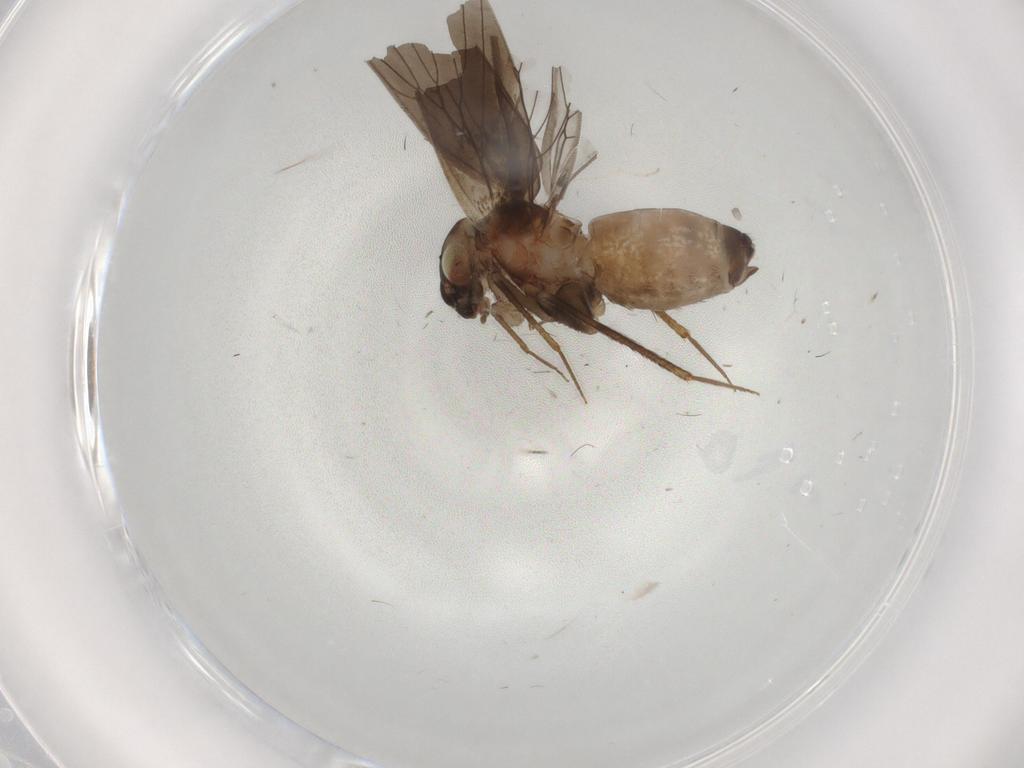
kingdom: Animalia
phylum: Arthropoda
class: Insecta
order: Psocodea
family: Lepidopsocidae
